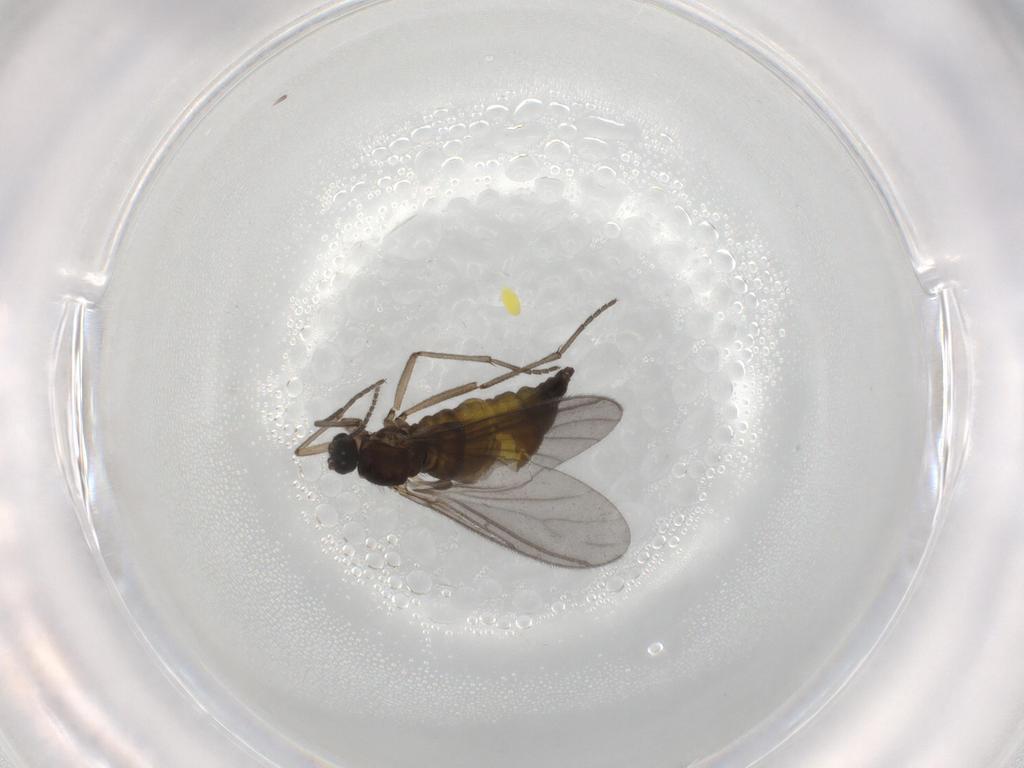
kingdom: Animalia
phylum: Arthropoda
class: Insecta
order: Diptera
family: Sciaridae
